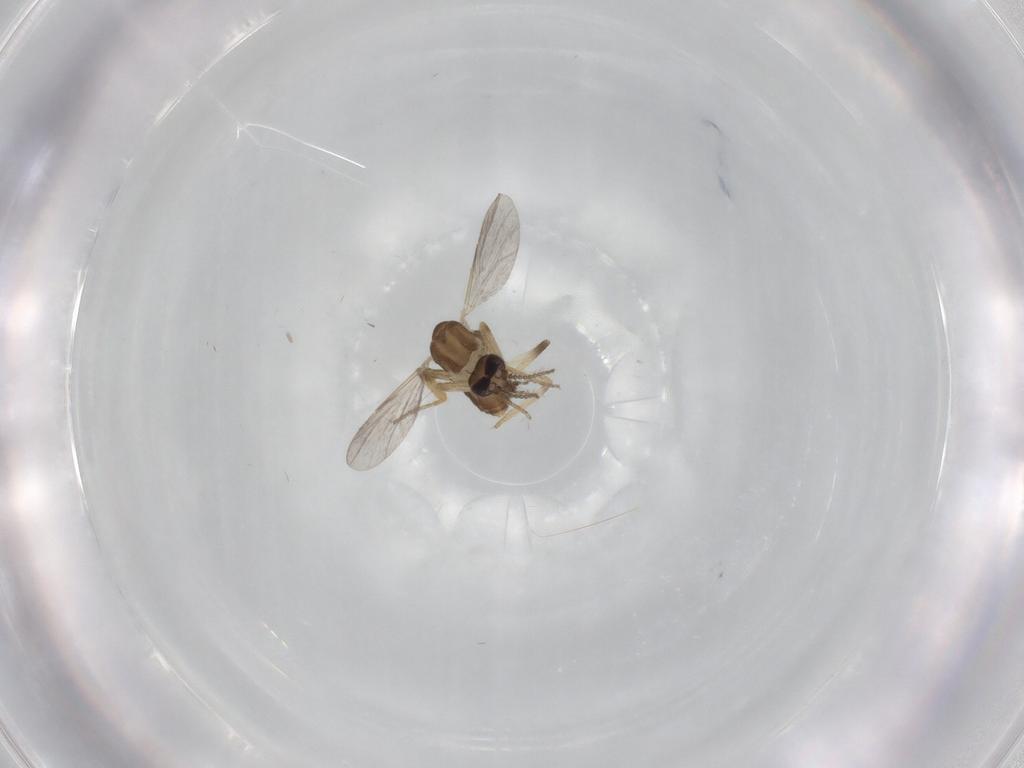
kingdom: Animalia
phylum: Arthropoda
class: Insecta
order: Diptera
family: Ceratopogonidae
